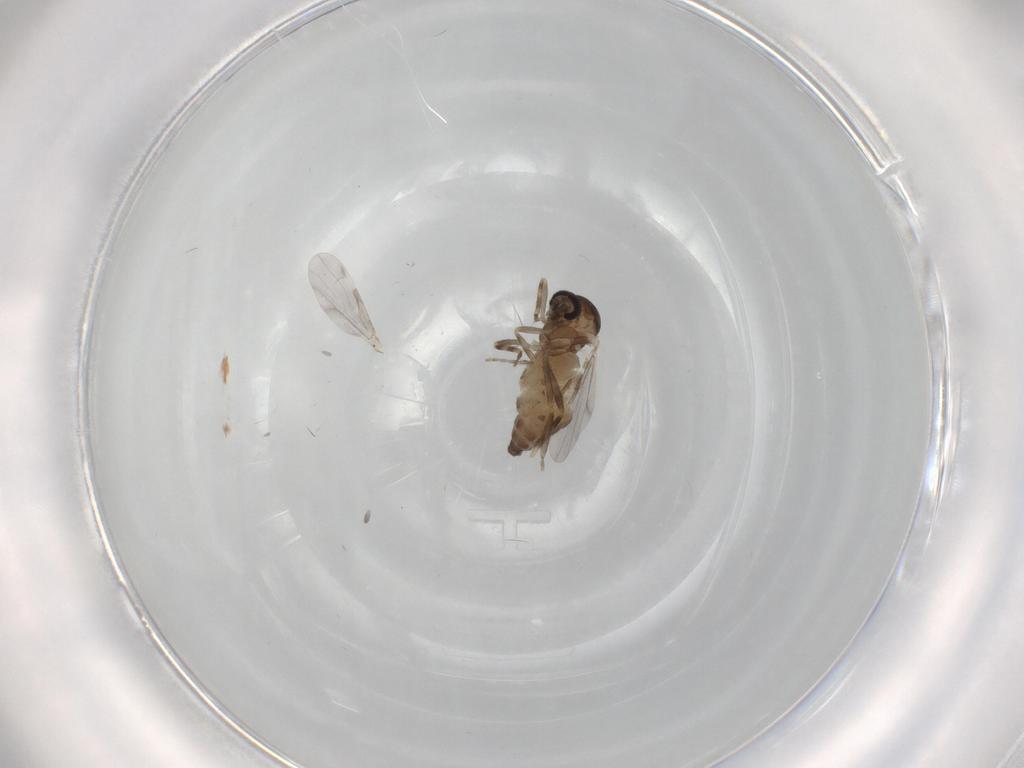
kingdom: Animalia
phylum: Arthropoda
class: Insecta
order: Diptera
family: Ceratopogonidae
